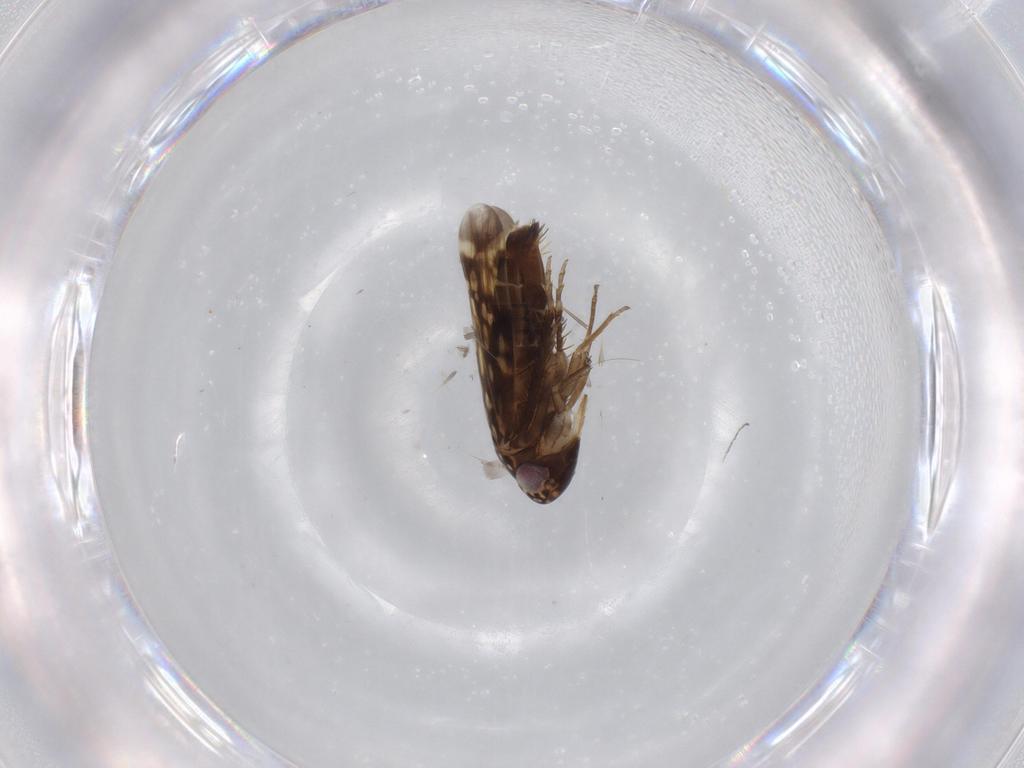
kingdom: Animalia
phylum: Arthropoda
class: Insecta
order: Hemiptera
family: Cicadellidae
